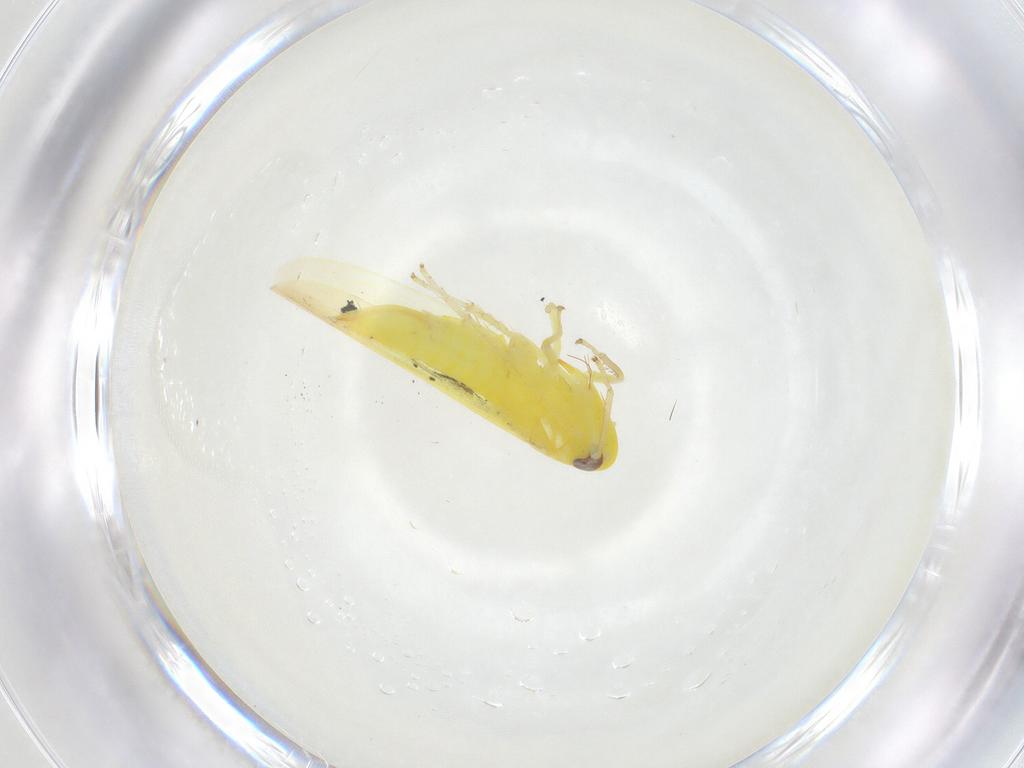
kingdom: Animalia
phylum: Arthropoda
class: Insecta
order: Hemiptera
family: Cicadellidae
